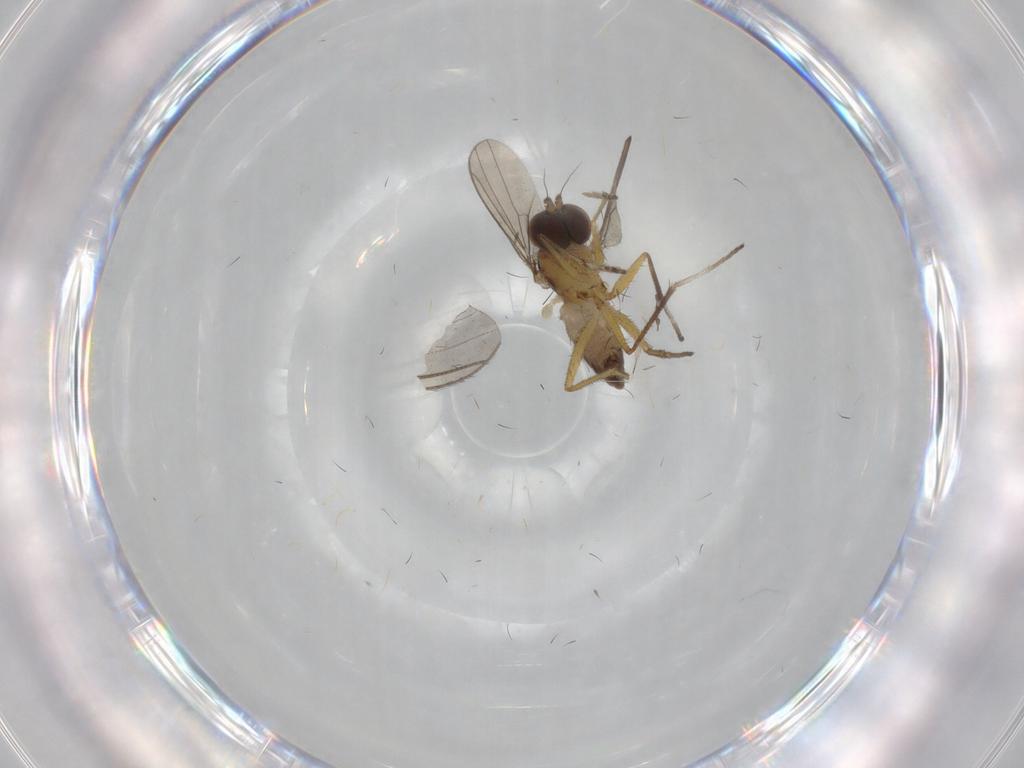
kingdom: Animalia
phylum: Arthropoda
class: Insecta
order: Diptera
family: Dolichopodidae
